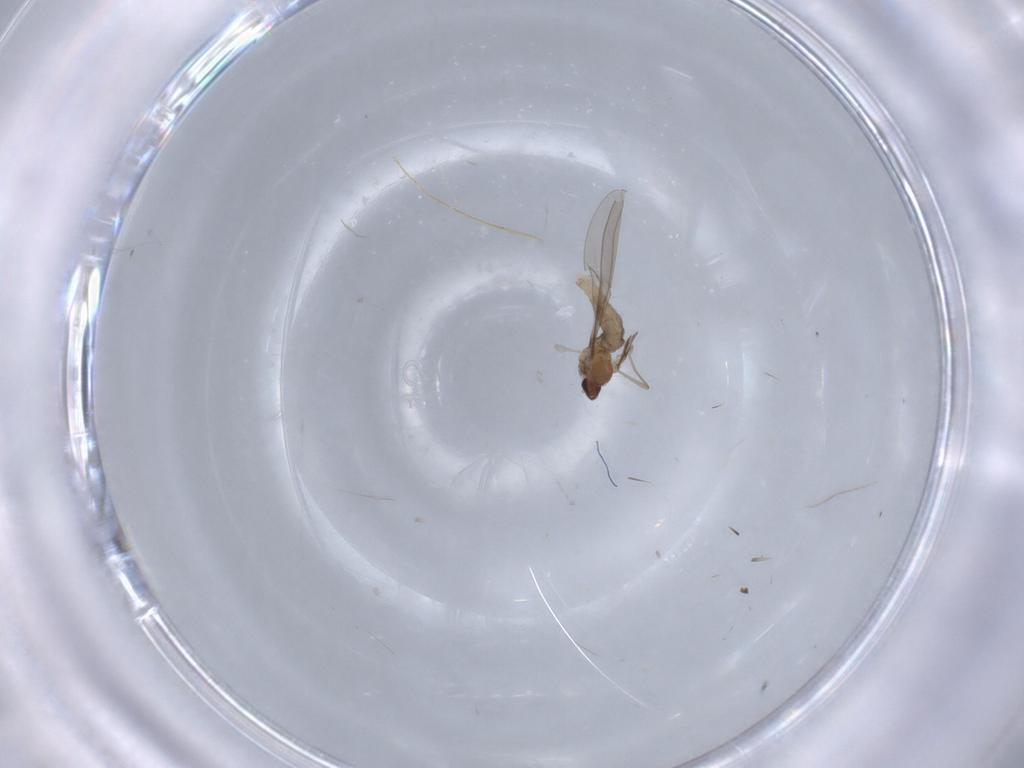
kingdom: Animalia
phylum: Arthropoda
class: Insecta
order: Diptera
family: Cecidomyiidae
